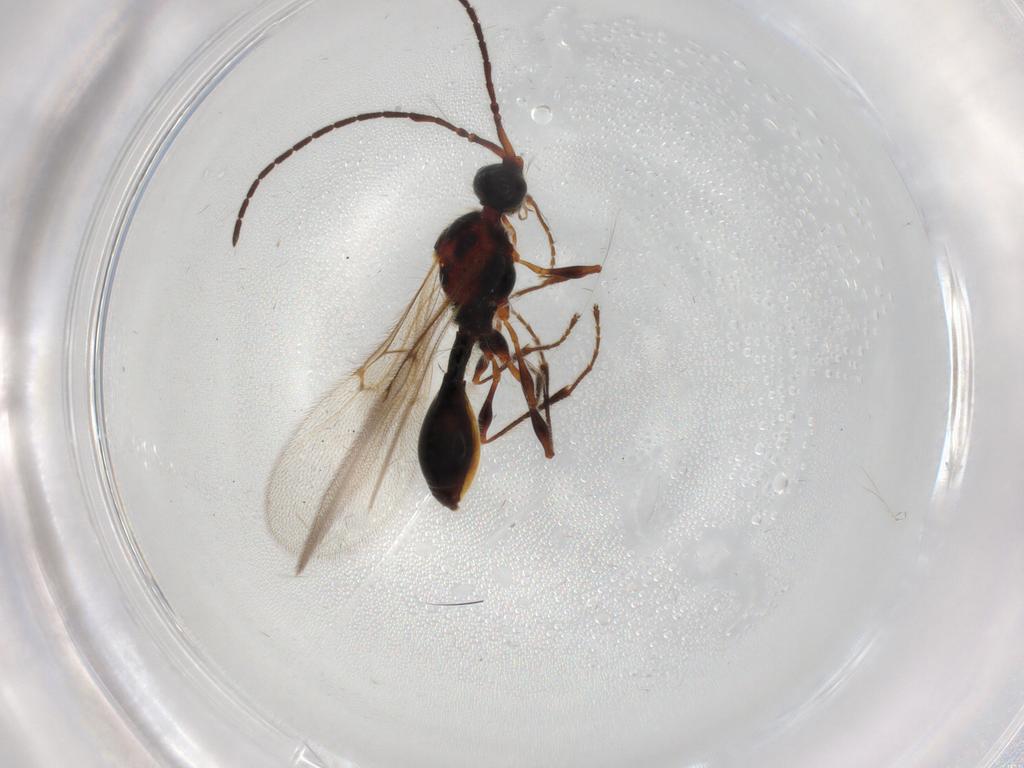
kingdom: Animalia
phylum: Arthropoda
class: Insecta
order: Hymenoptera
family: Diapriidae
